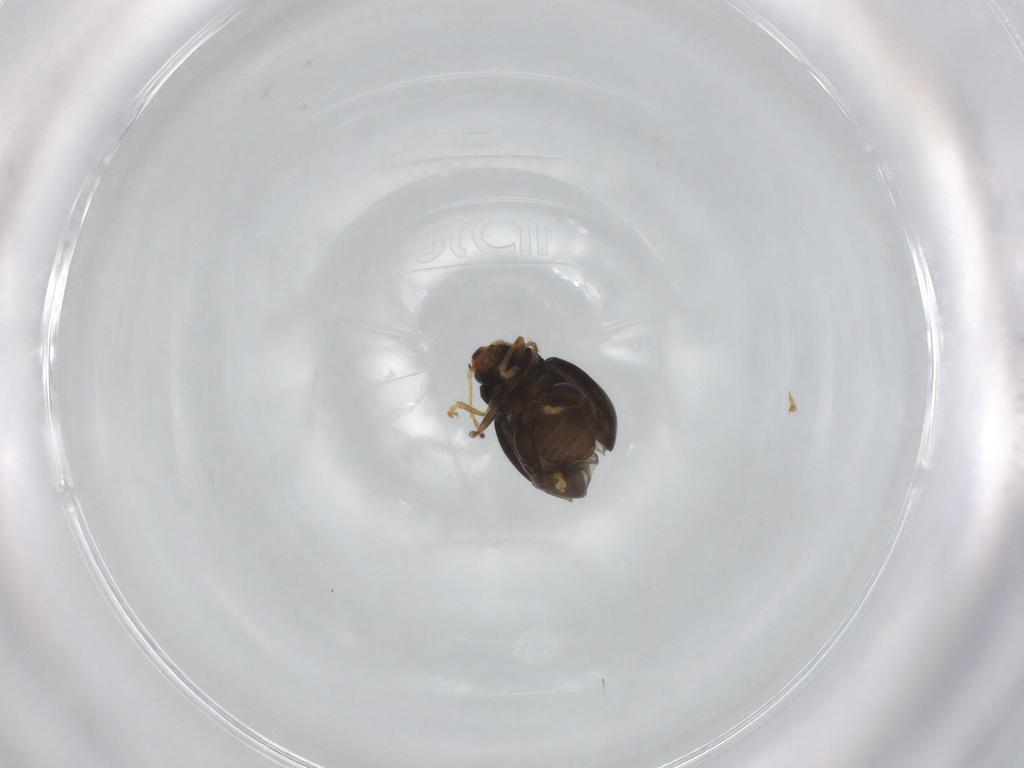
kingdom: Animalia
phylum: Arthropoda
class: Insecta
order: Coleoptera
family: Chrysomelidae
